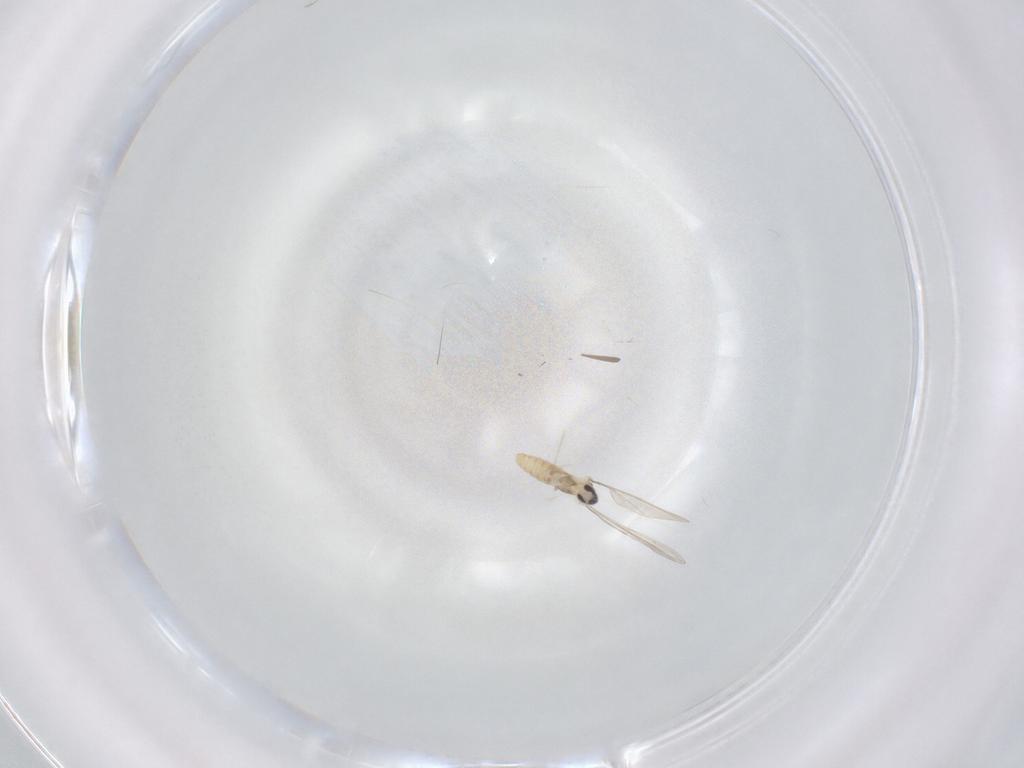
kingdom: Animalia
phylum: Arthropoda
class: Insecta
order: Diptera
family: Cecidomyiidae
